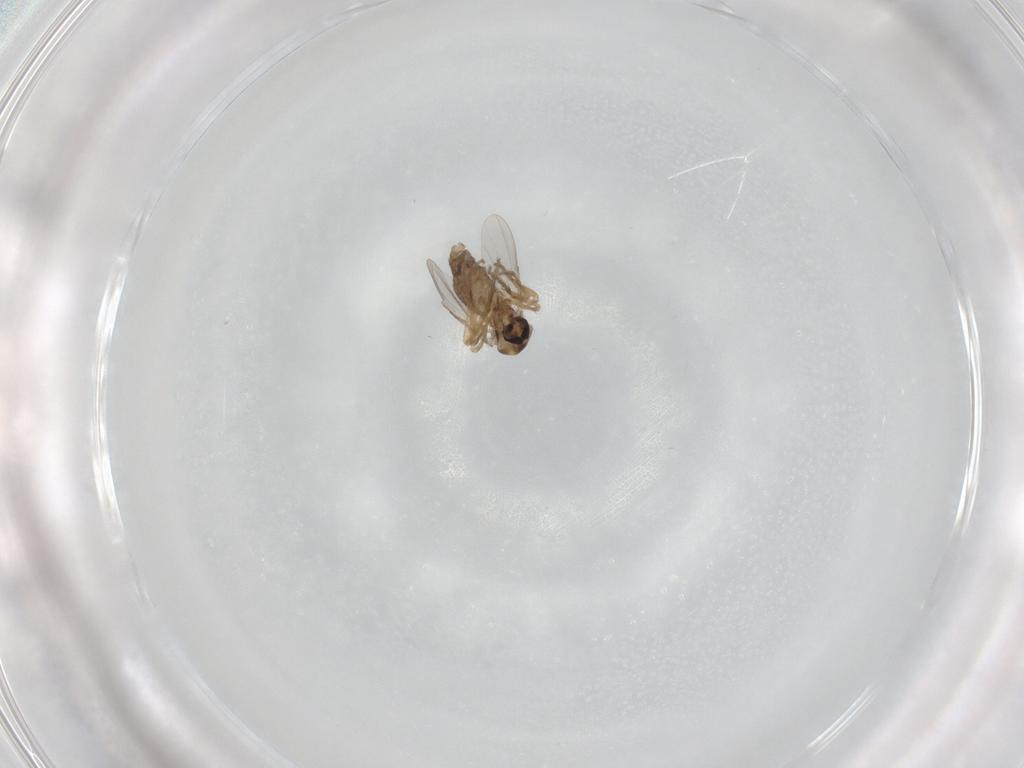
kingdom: Animalia
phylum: Arthropoda
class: Insecta
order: Diptera
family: Ceratopogonidae
